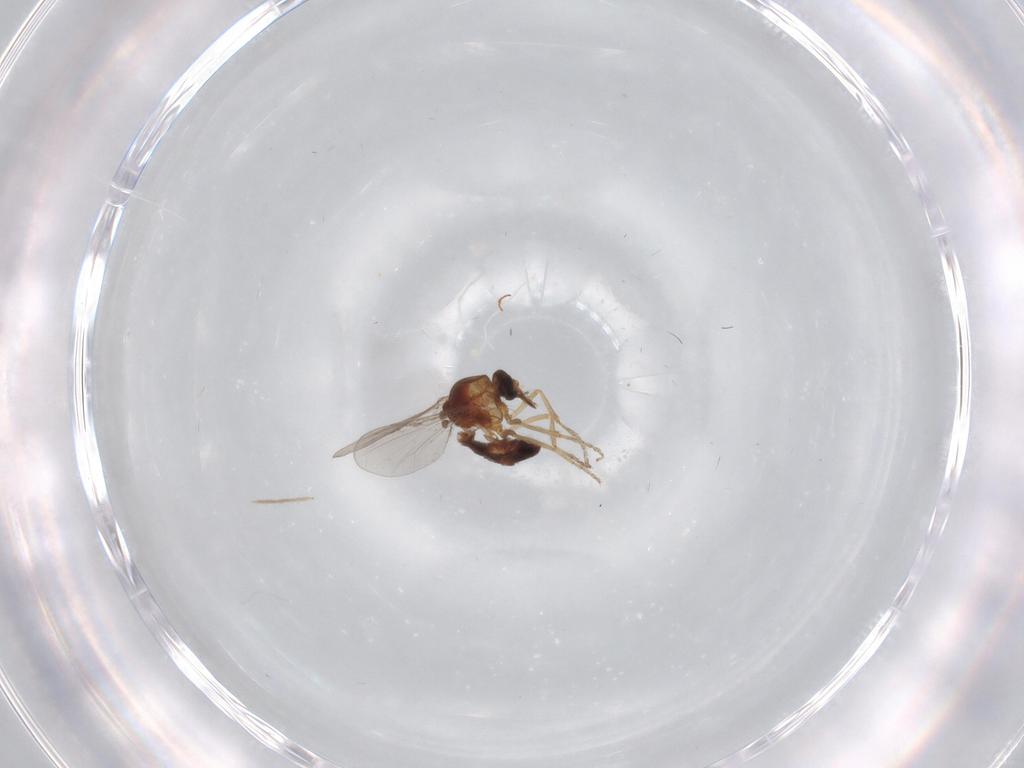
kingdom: Animalia
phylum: Arthropoda
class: Insecta
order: Diptera
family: Ceratopogonidae
